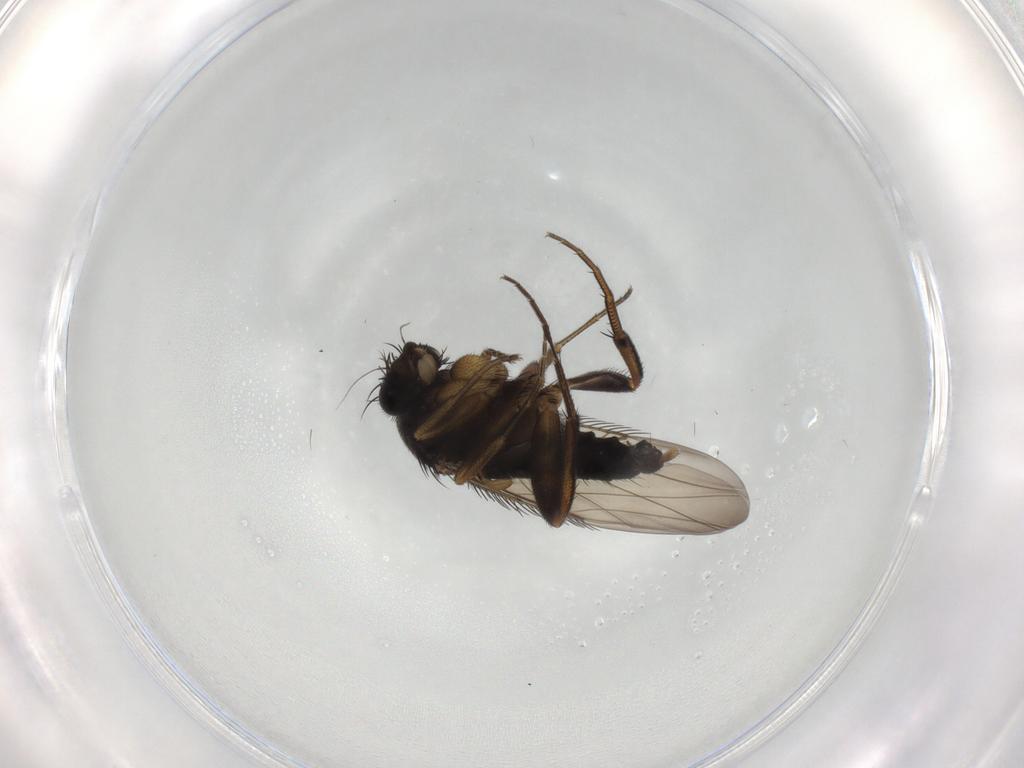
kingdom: Animalia
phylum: Arthropoda
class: Insecta
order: Diptera
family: Phoridae
